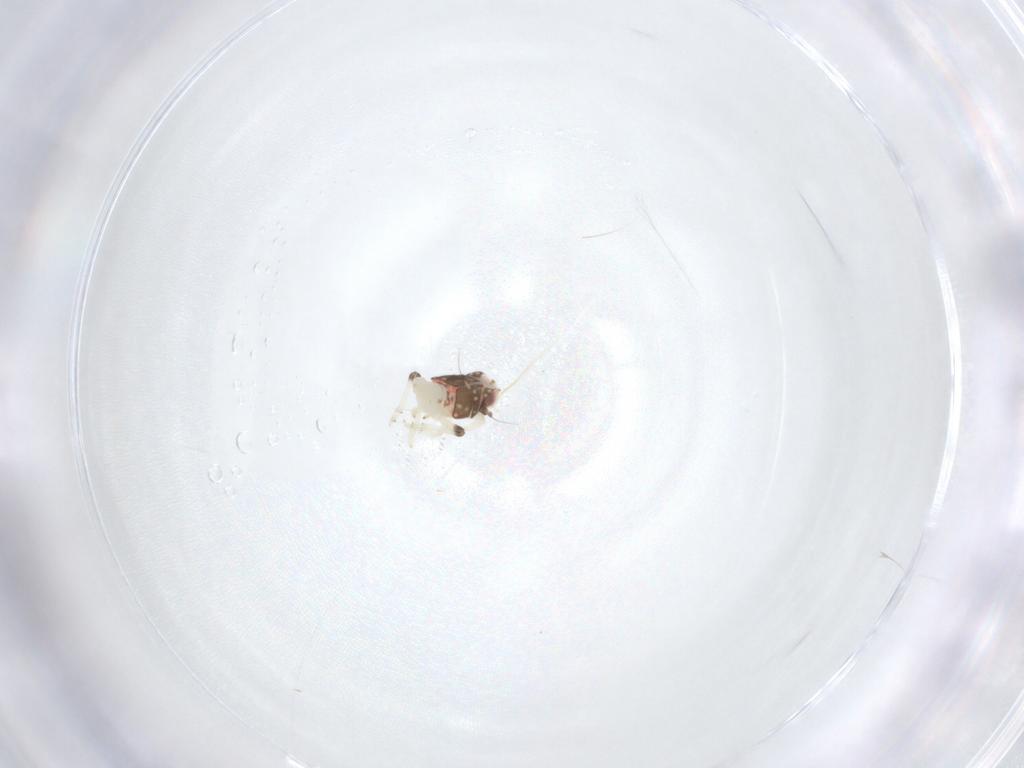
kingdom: Animalia
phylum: Arthropoda
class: Insecta
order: Hemiptera
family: Nogodinidae
